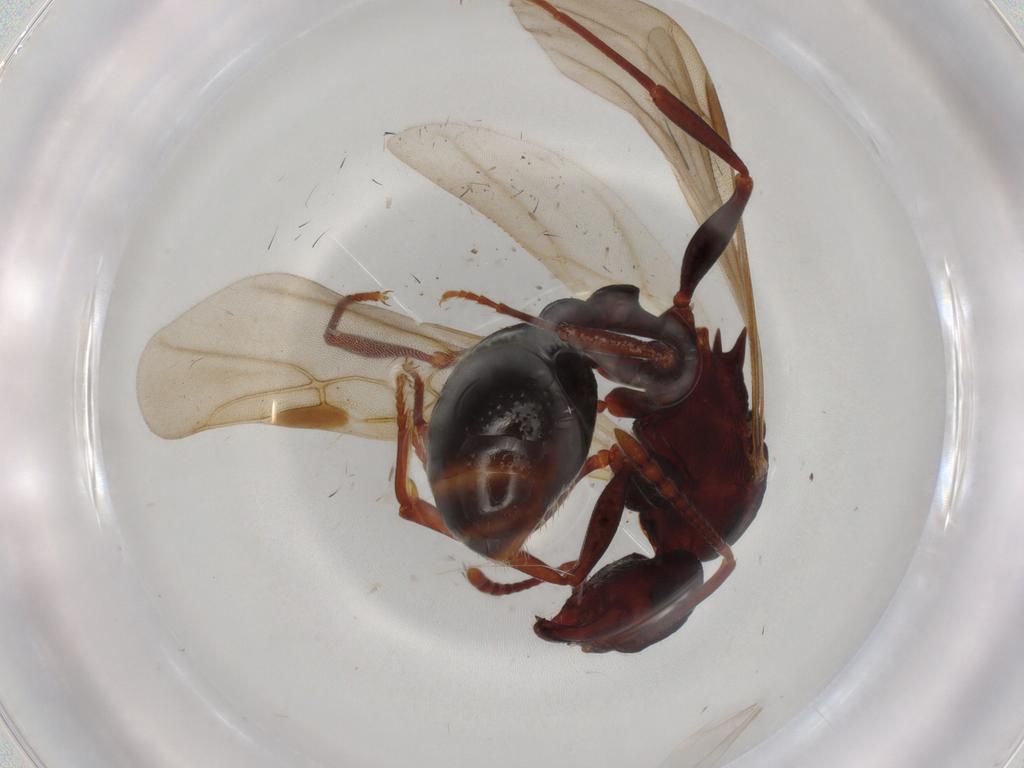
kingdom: Animalia
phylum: Arthropoda
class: Insecta
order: Hymenoptera
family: Formicidae
